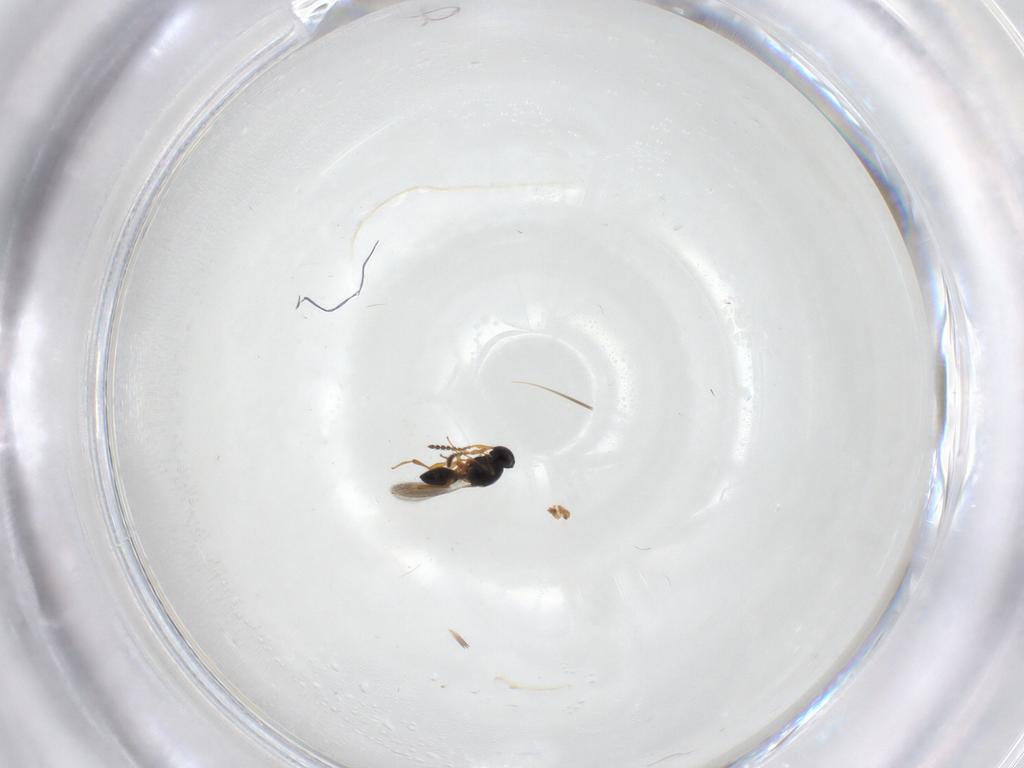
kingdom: Animalia
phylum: Arthropoda
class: Insecta
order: Hymenoptera
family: Platygastridae
